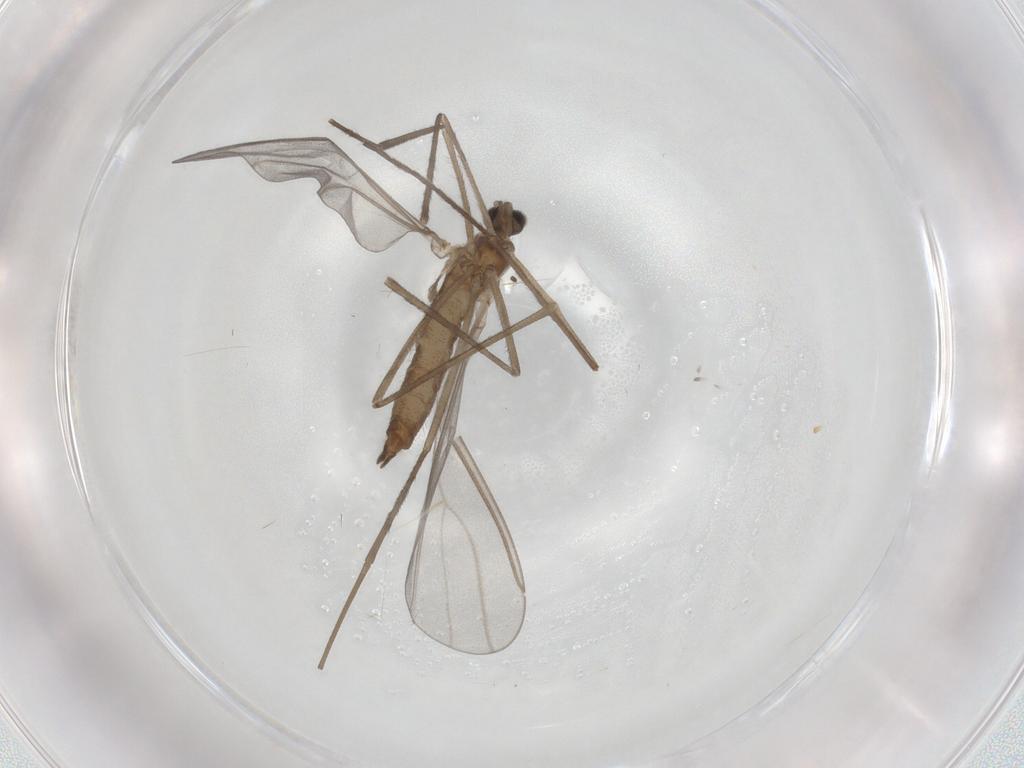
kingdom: Animalia
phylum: Arthropoda
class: Insecta
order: Diptera
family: Cecidomyiidae
